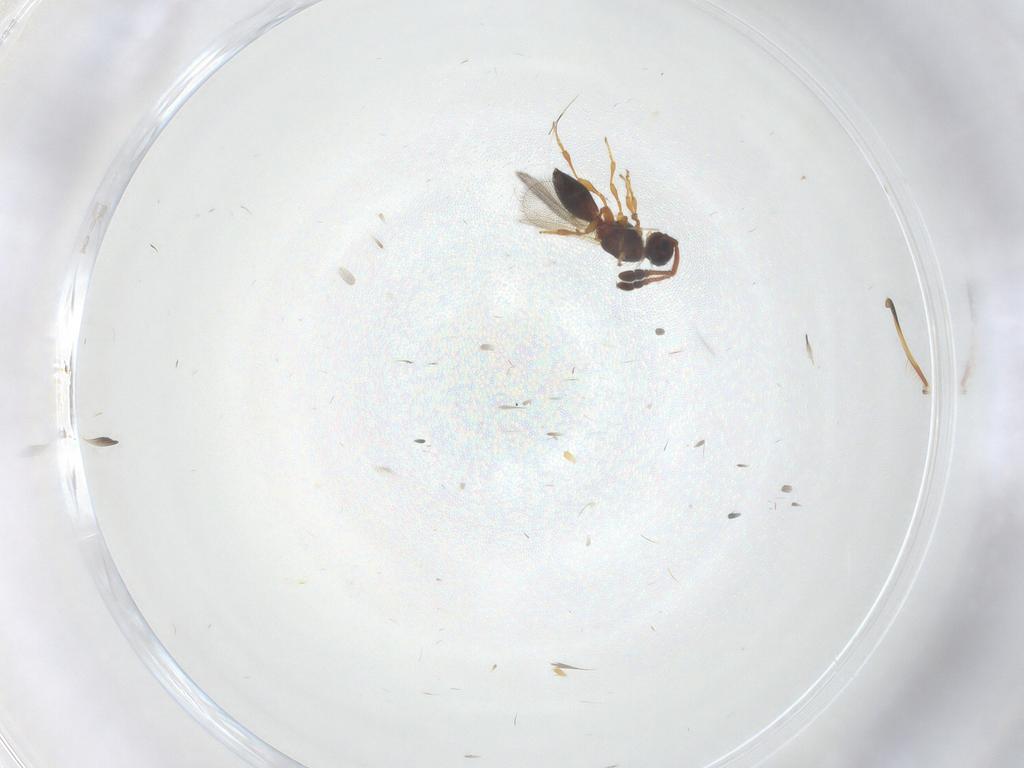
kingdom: Animalia
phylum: Arthropoda
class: Insecta
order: Hymenoptera
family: Diapriidae
